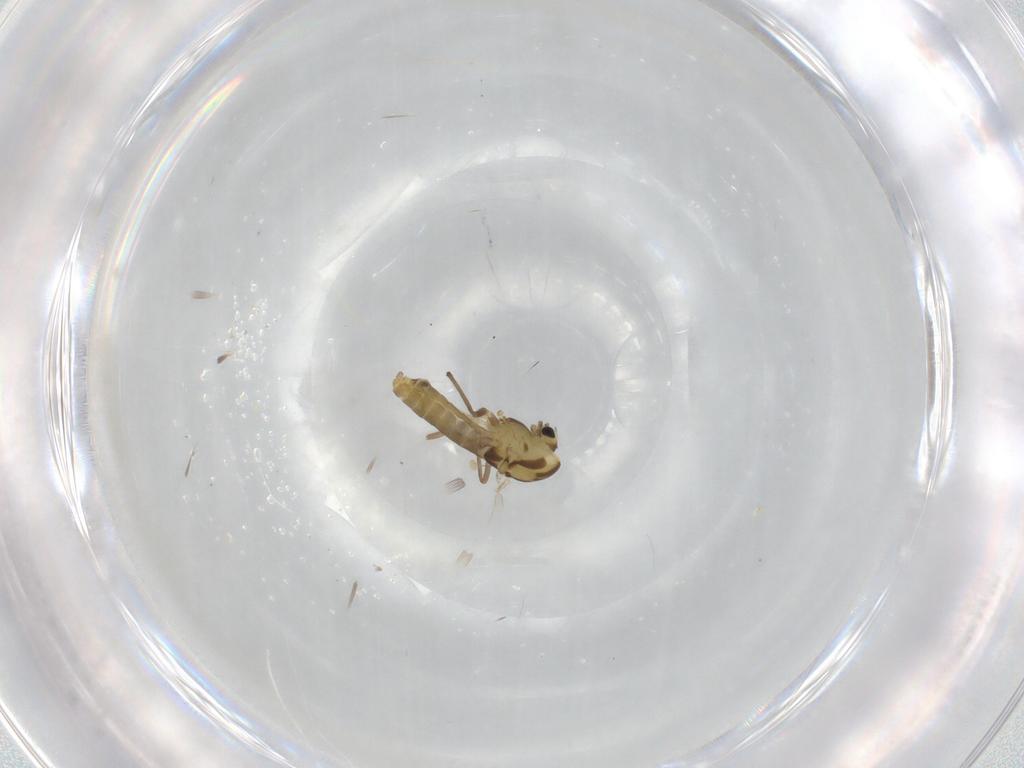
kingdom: Animalia
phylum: Arthropoda
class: Insecta
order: Diptera
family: Chironomidae
